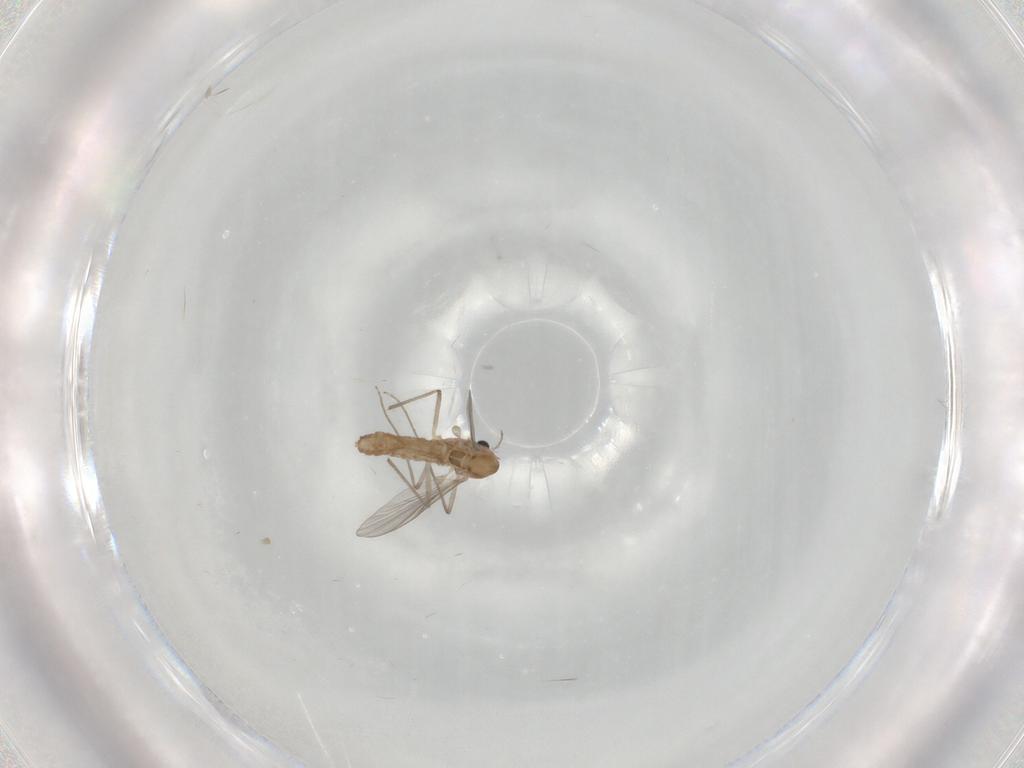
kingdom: Animalia
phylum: Arthropoda
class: Insecta
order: Diptera
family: Chironomidae
